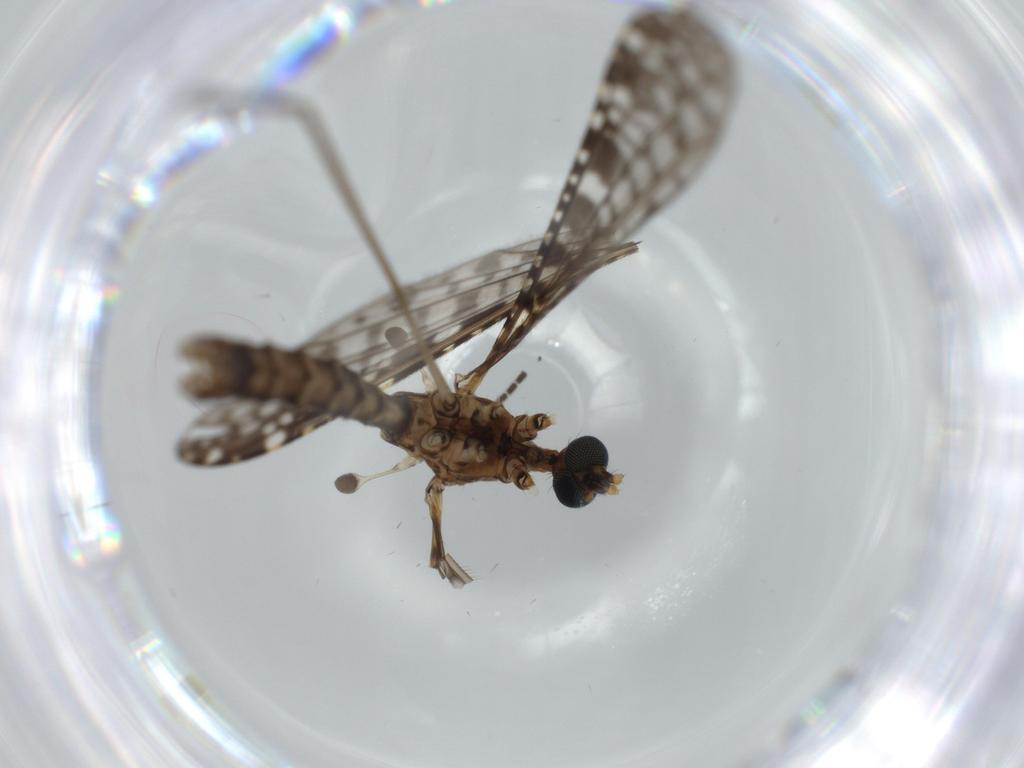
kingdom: Animalia
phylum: Arthropoda
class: Insecta
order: Diptera
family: Limoniidae
